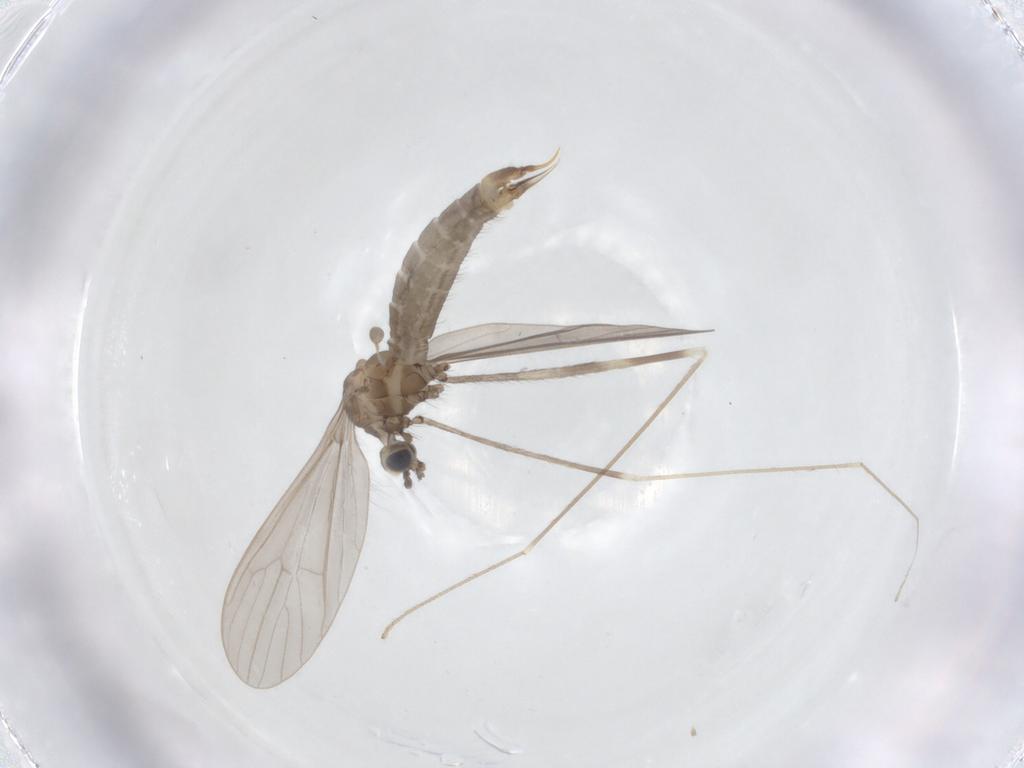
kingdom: Animalia
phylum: Arthropoda
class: Insecta
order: Diptera
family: Limoniidae
